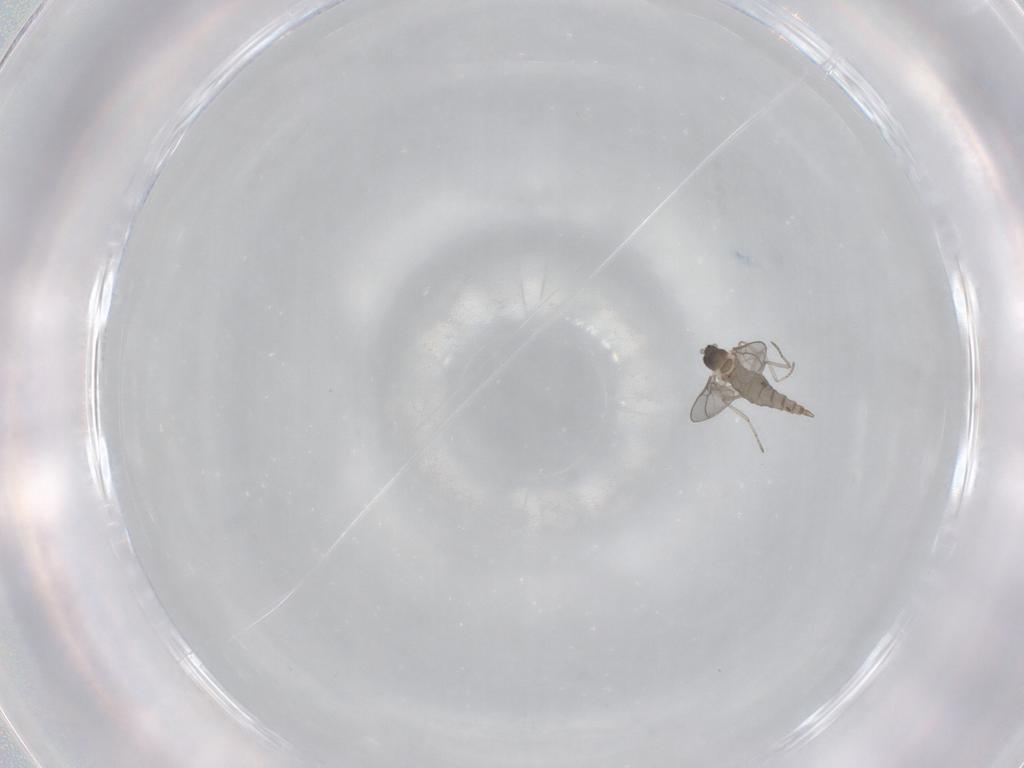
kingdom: Animalia
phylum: Arthropoda
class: Insecta
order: Diptera
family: Cecidomyiidae
